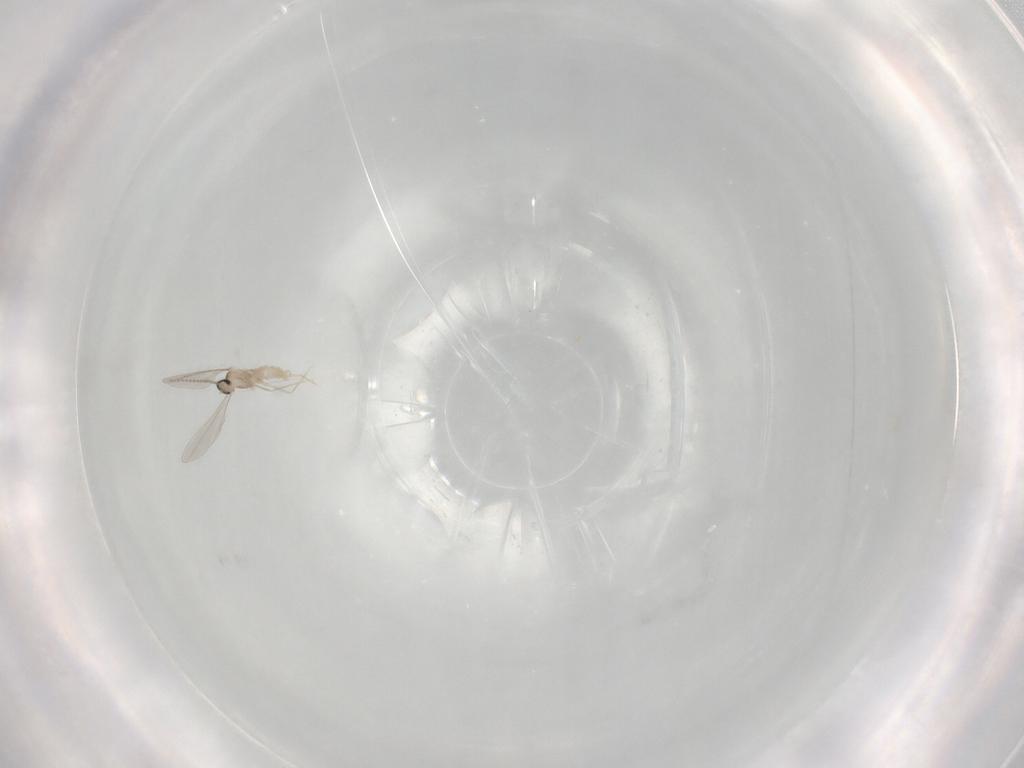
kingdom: Animalia
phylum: Arthropoda
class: Insecta
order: Diptera
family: Cecidomyiidae
